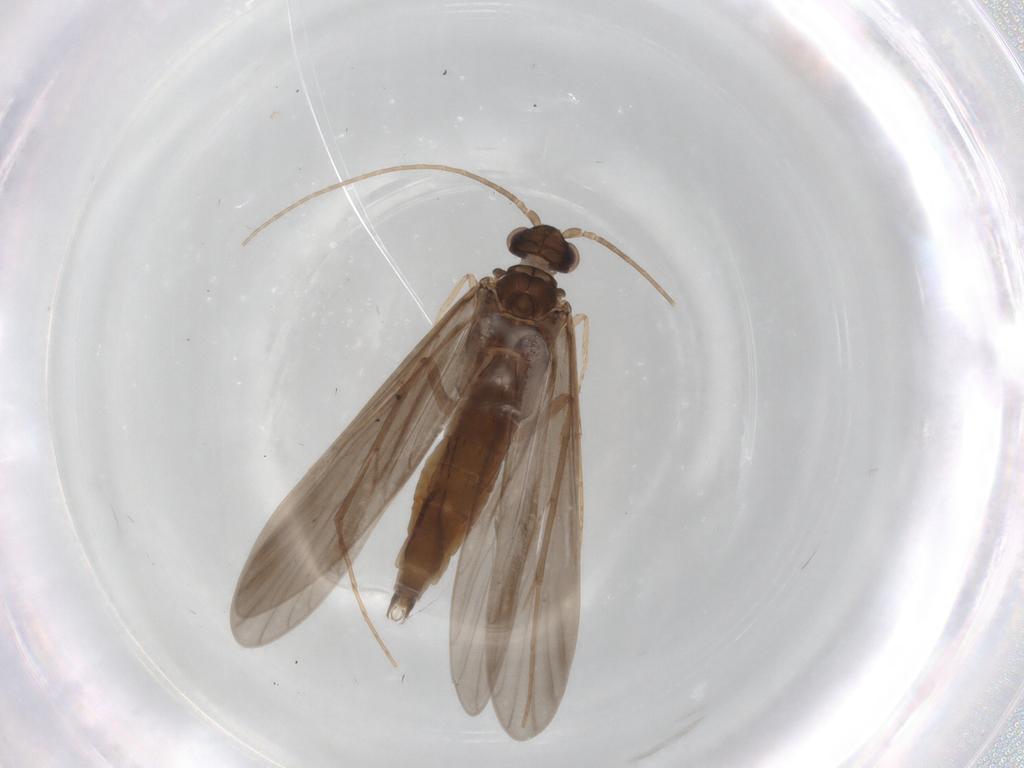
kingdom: Animalia
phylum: Arthropoda
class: Insecta
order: Trichoptera
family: Xiphocentronidae
